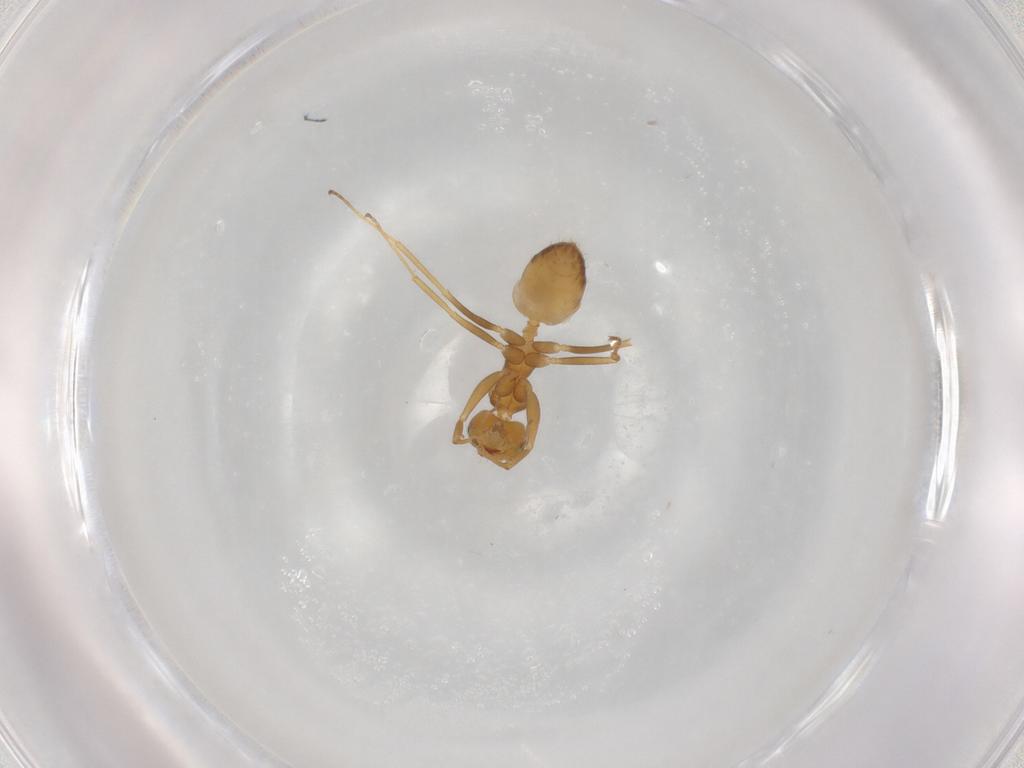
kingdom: Animalia
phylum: Arthropoda
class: Insecta
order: Hymenoptera
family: Formicidae
